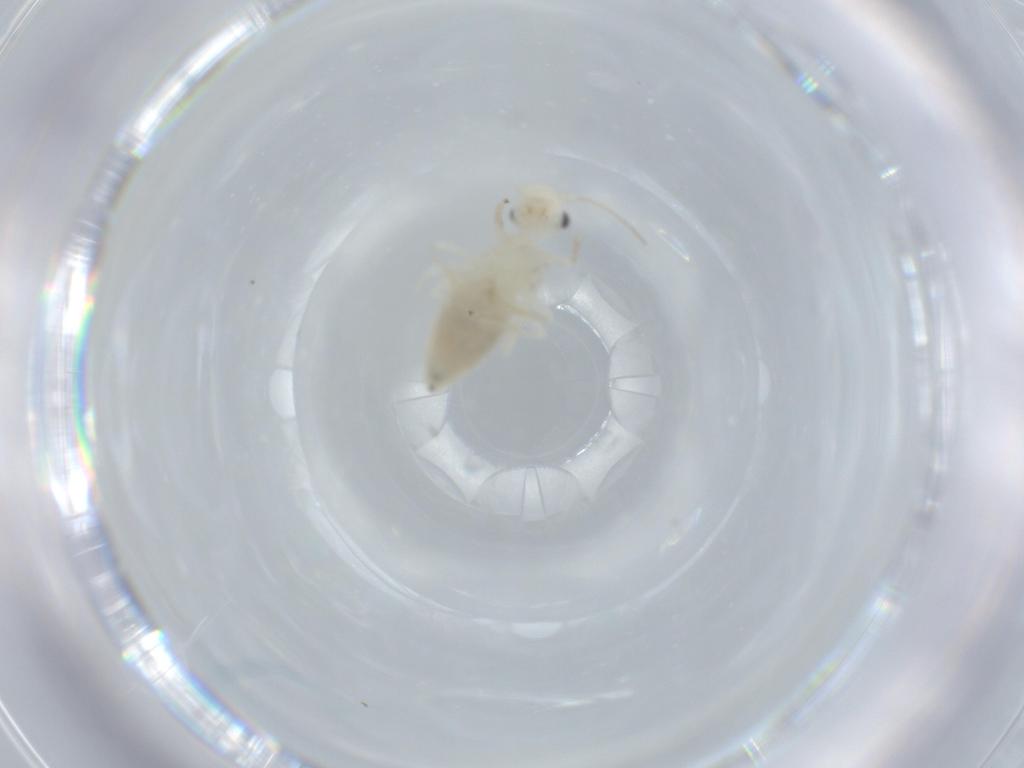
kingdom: Animalia
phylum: Arthropoda
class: Insecta
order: Psocodea
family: Caeciliusidae
